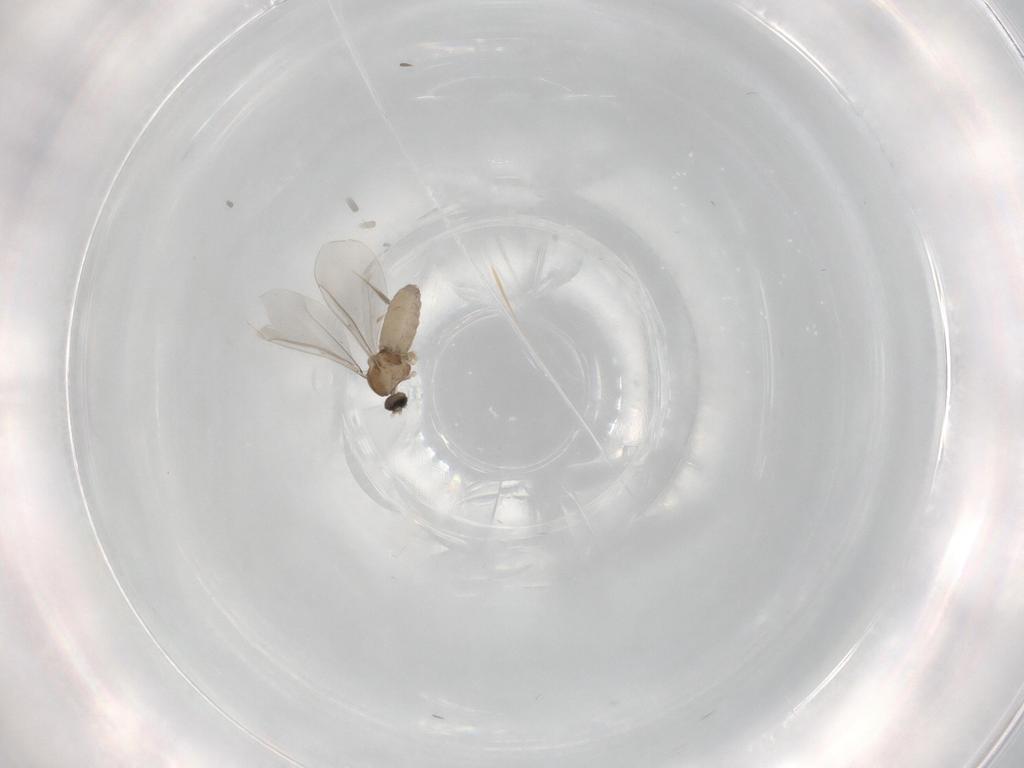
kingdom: Animalia
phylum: Arthropoda
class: Insecta
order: Diptera
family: Cecidomyiidae
